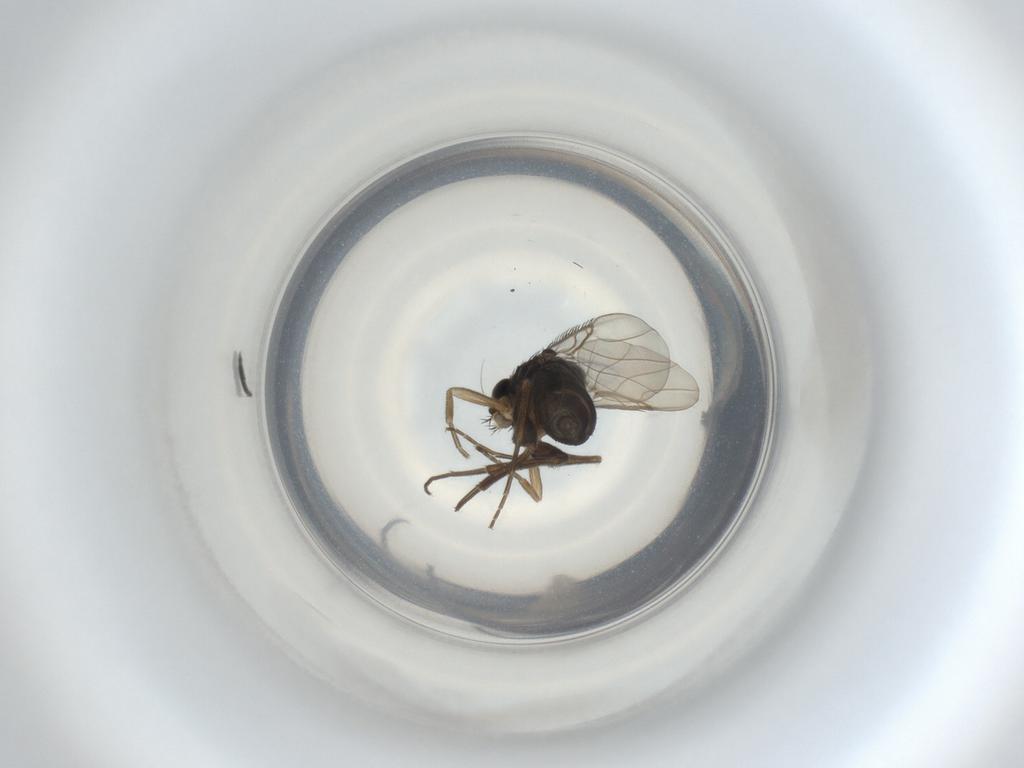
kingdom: Animalia
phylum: Arthropoda
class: Insecta
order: Diptera
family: Phoridae
